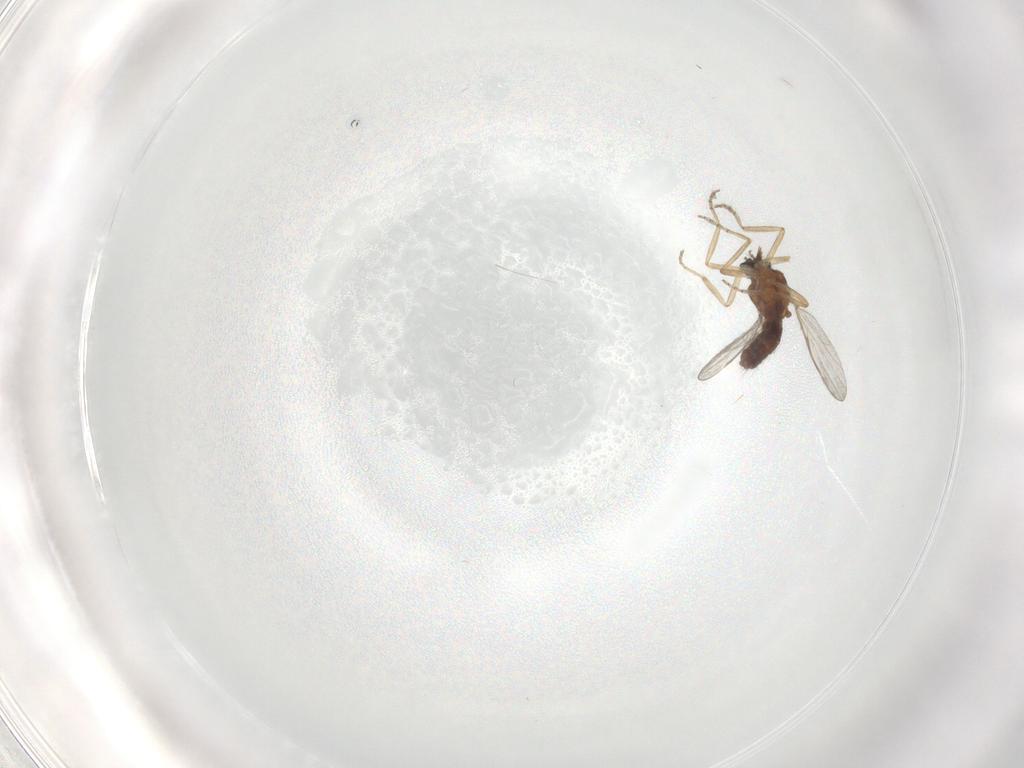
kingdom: Animalia
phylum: Arthropoda
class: Insecta
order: Diptera
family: Ceratopogonidae
